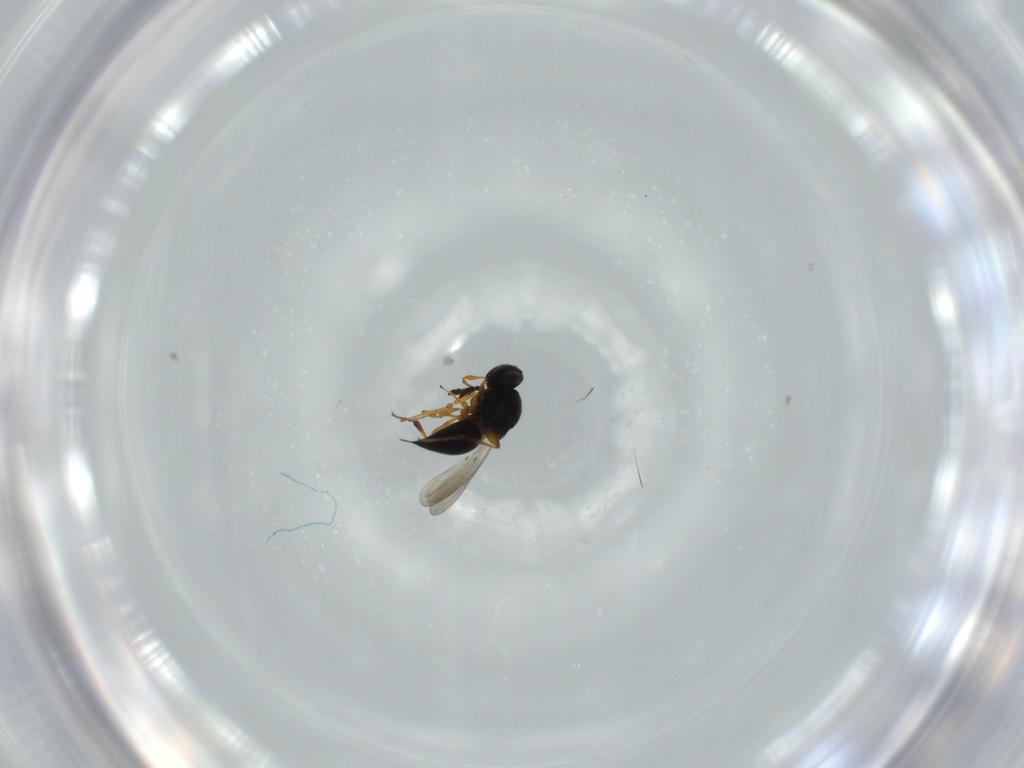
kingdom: Animalia
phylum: Arthropoda
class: Insecta
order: Hymenoptera
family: Platygastridae
